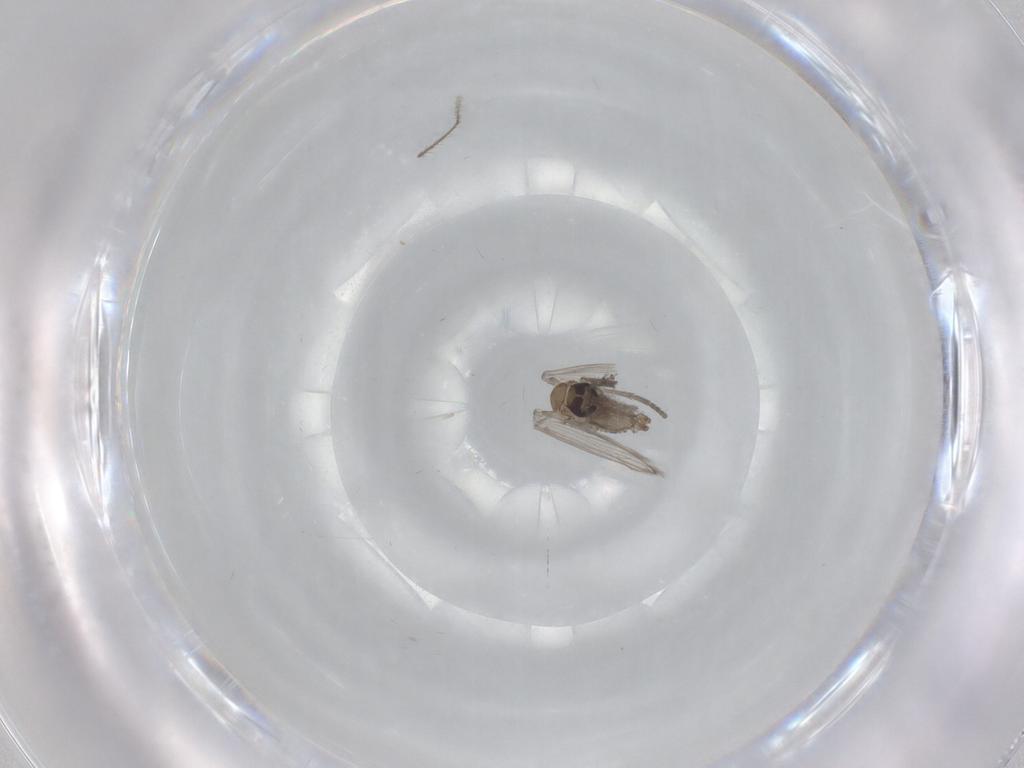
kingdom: Animalia
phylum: Arthropoda
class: Insecta
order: Diptera
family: Psychodidae
